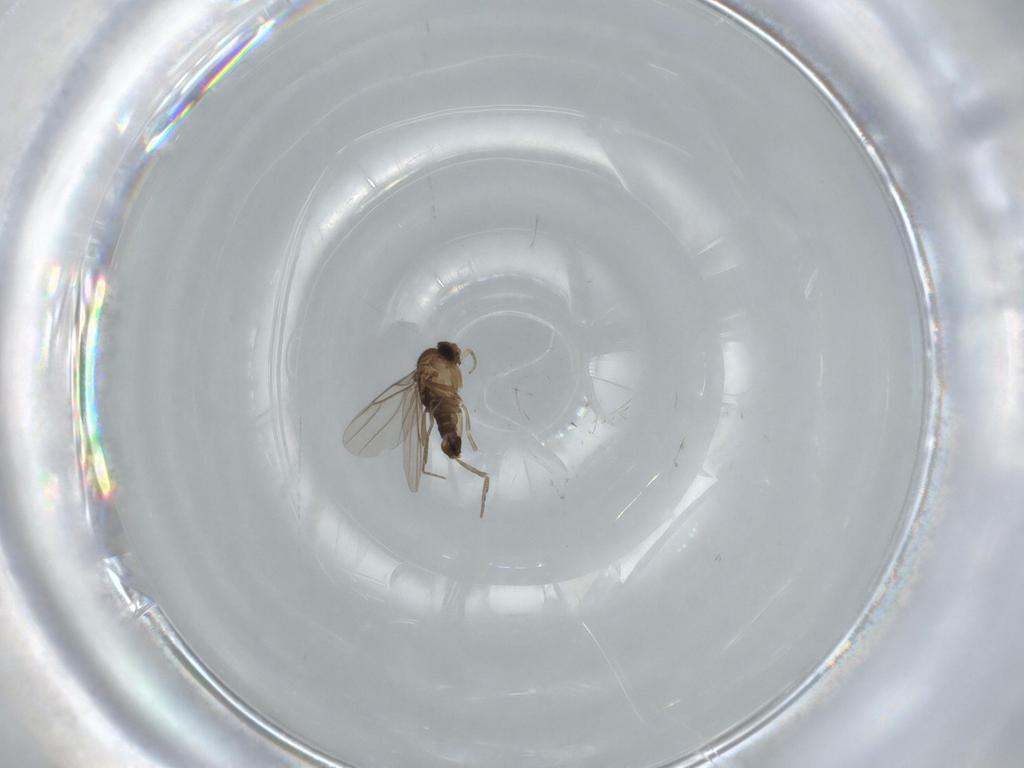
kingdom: Animalia
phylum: Arthropoda
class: Insecta
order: Diptera
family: Phoridae
